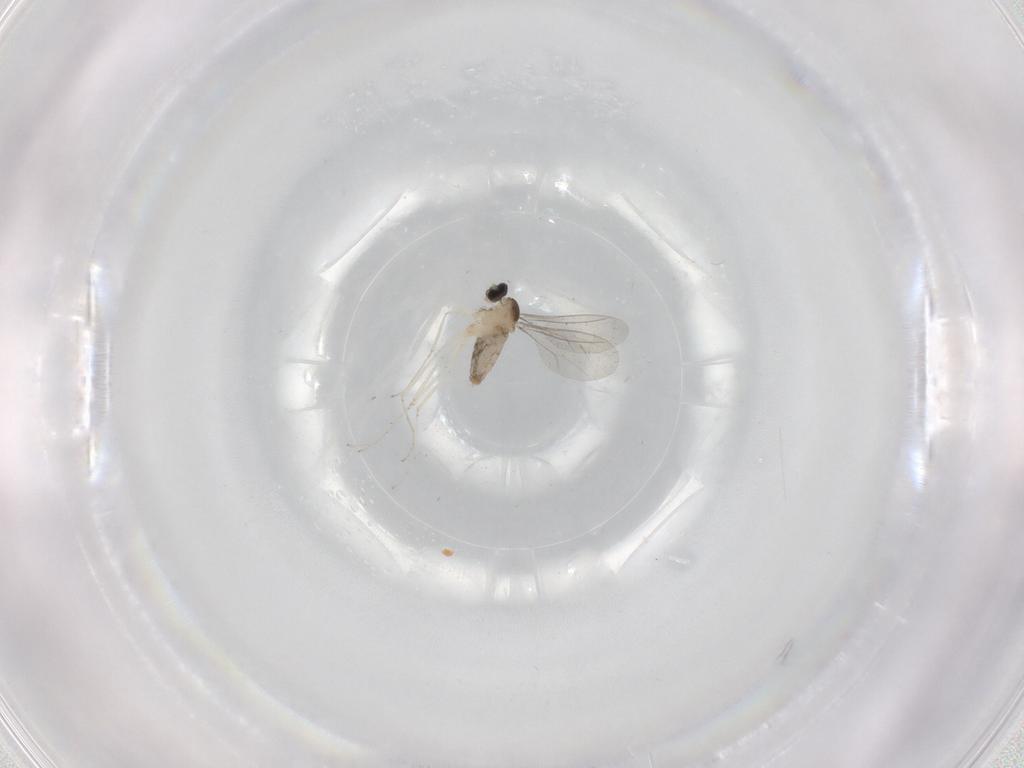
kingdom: Animalia
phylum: Arthropoda
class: Insecta
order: Diptera
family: Cecidomyiidae
